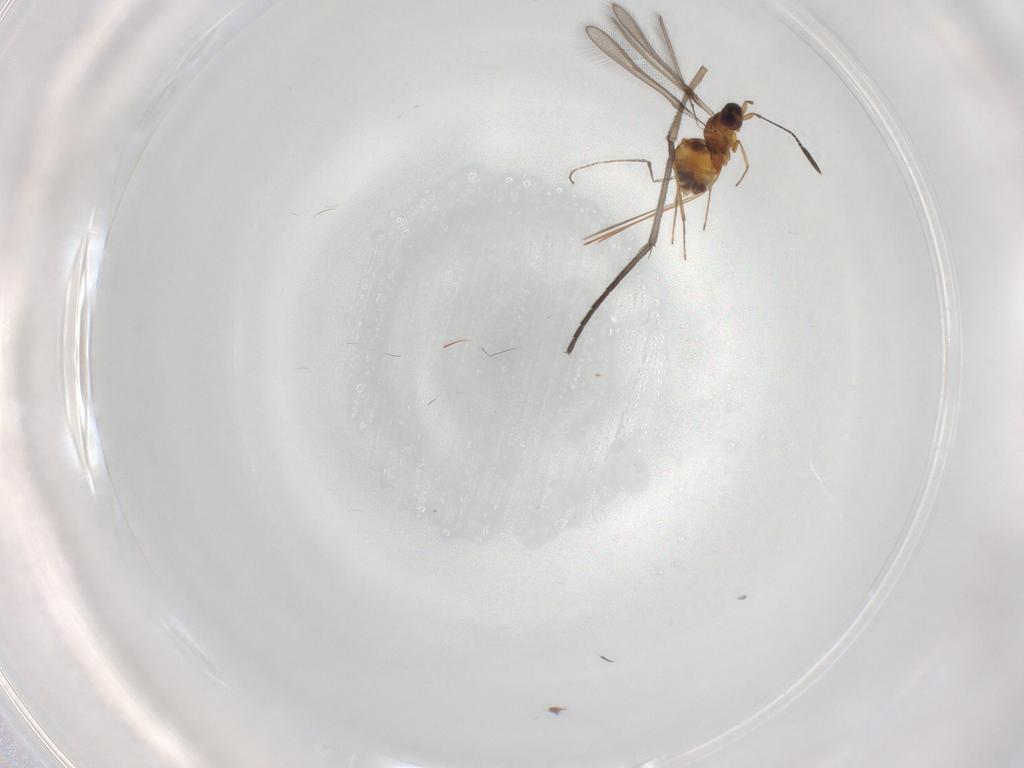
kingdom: Animalia
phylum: Arthropoda
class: Insecta
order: Hymenoptera
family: Mymaridae
